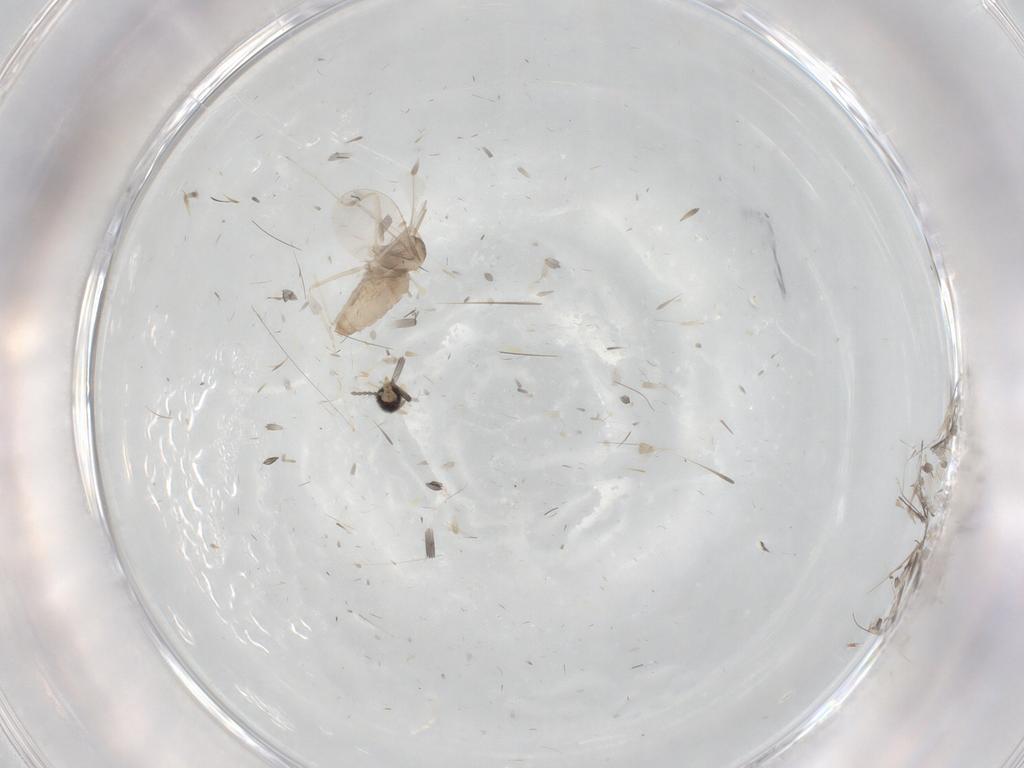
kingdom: Animalia
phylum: Arthropoda
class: Insecta
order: Diptera
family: Cecidomyiidae
